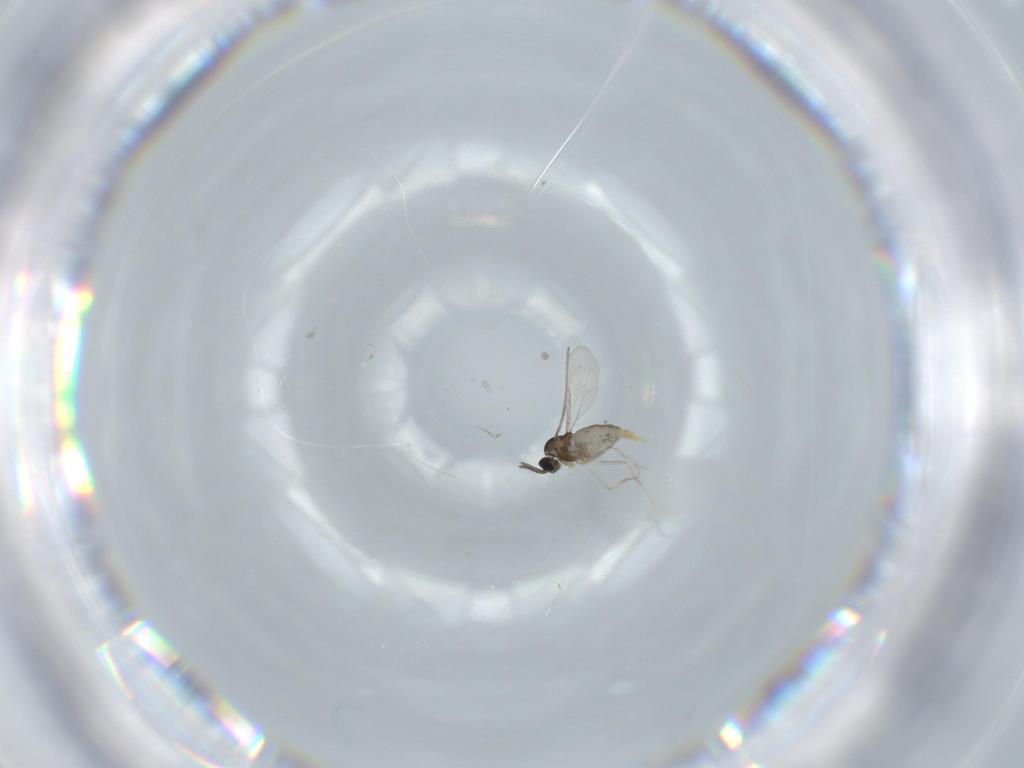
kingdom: Animalia
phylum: Arthropoda
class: Insecta
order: Diptera
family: Cecidomyiidae
